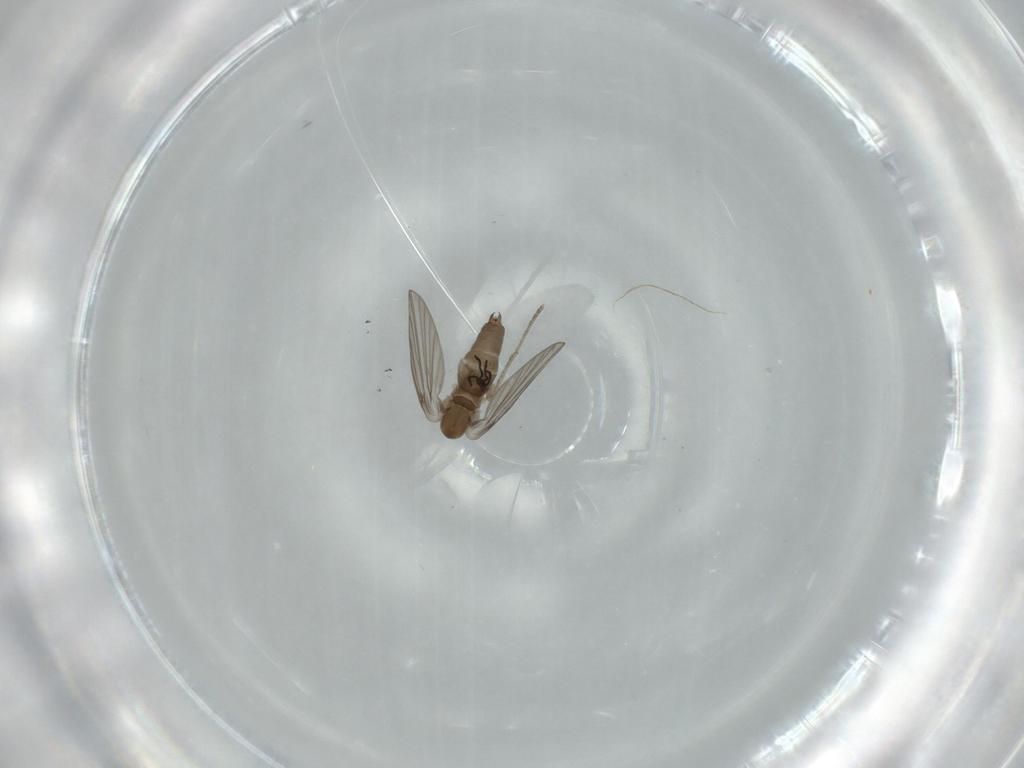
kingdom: Animalia
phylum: Arthropoda
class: Insecta
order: Diptera
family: Psychodidae
